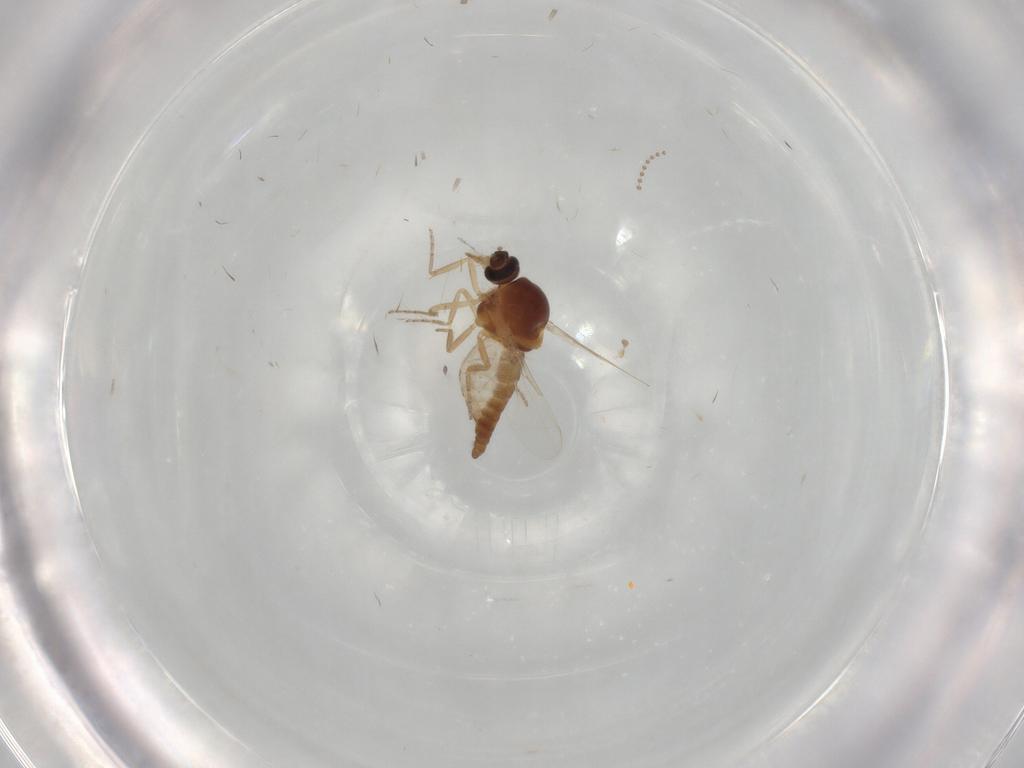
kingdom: Animalia
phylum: Arthropoda
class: Insecta
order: Diptera
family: Ceratopogonidae
